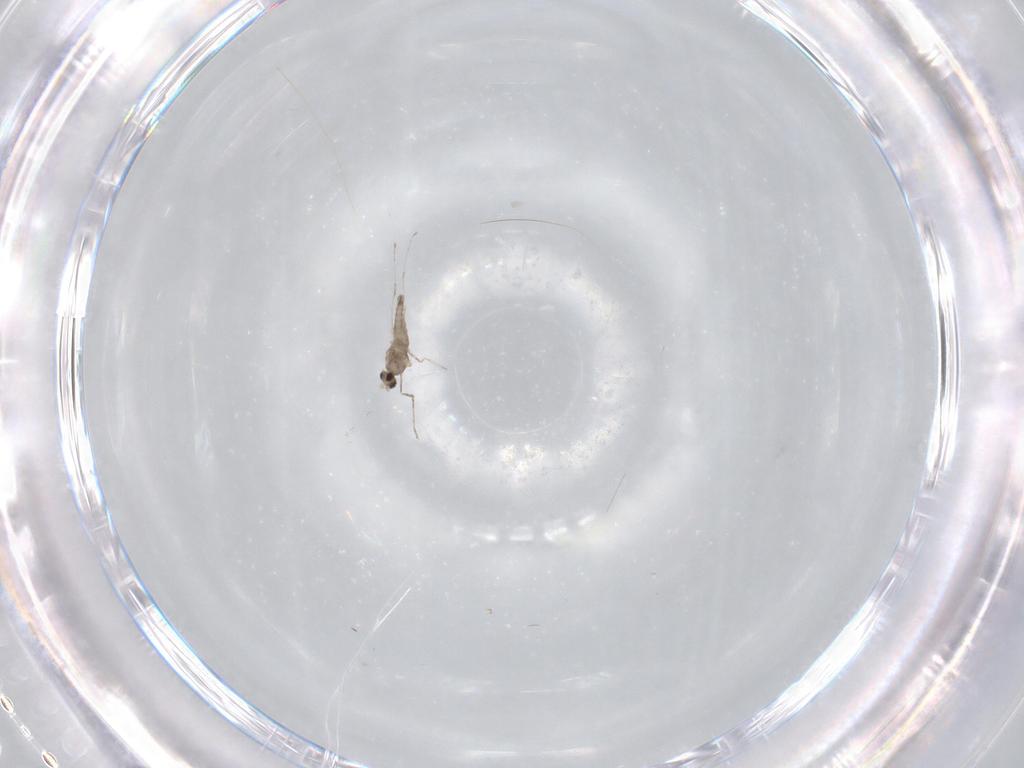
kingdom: Animalia
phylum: Arthropoda
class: Insecta
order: Diptera
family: Cecidomyiidae
